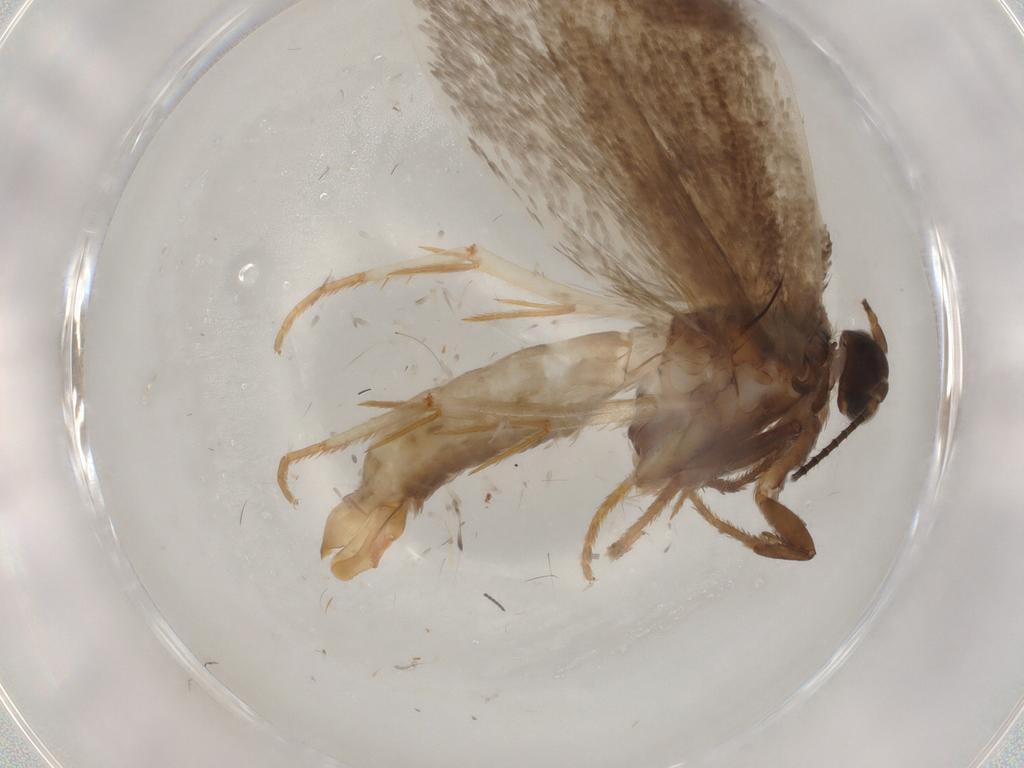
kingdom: Animalia
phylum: Arthropoda
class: Insecta
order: Lepidoptera
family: Eriocottidae
